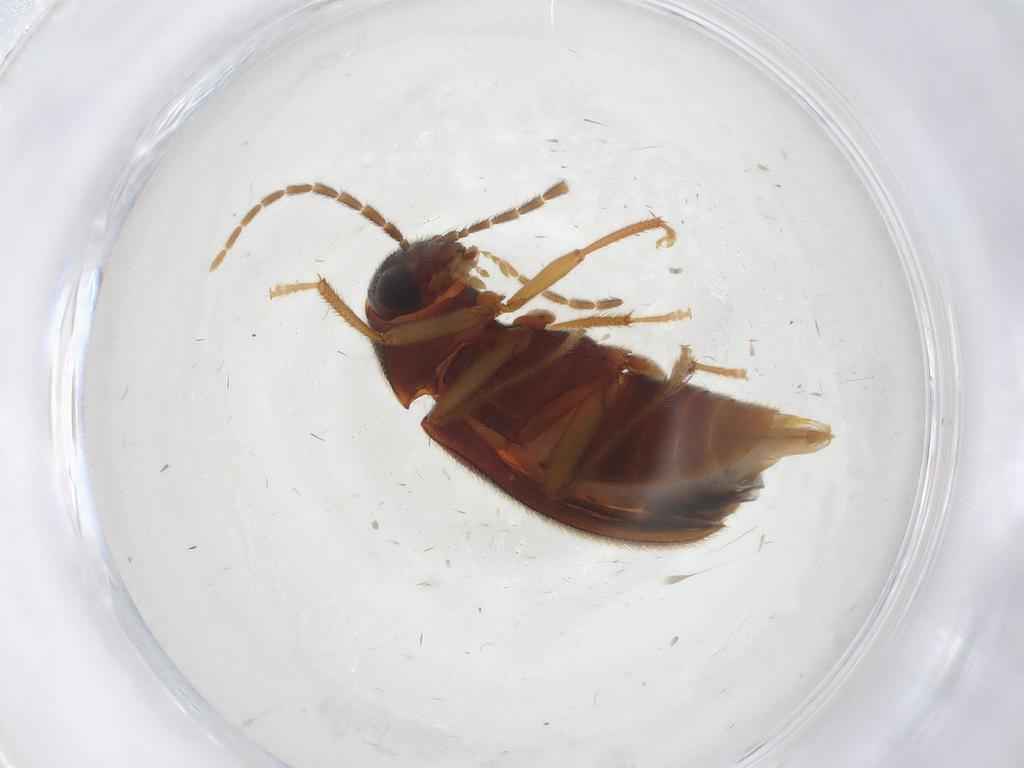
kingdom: Animalia
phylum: Arthropoda
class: Insecta
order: Coleoptera
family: Ptilodactylidae
